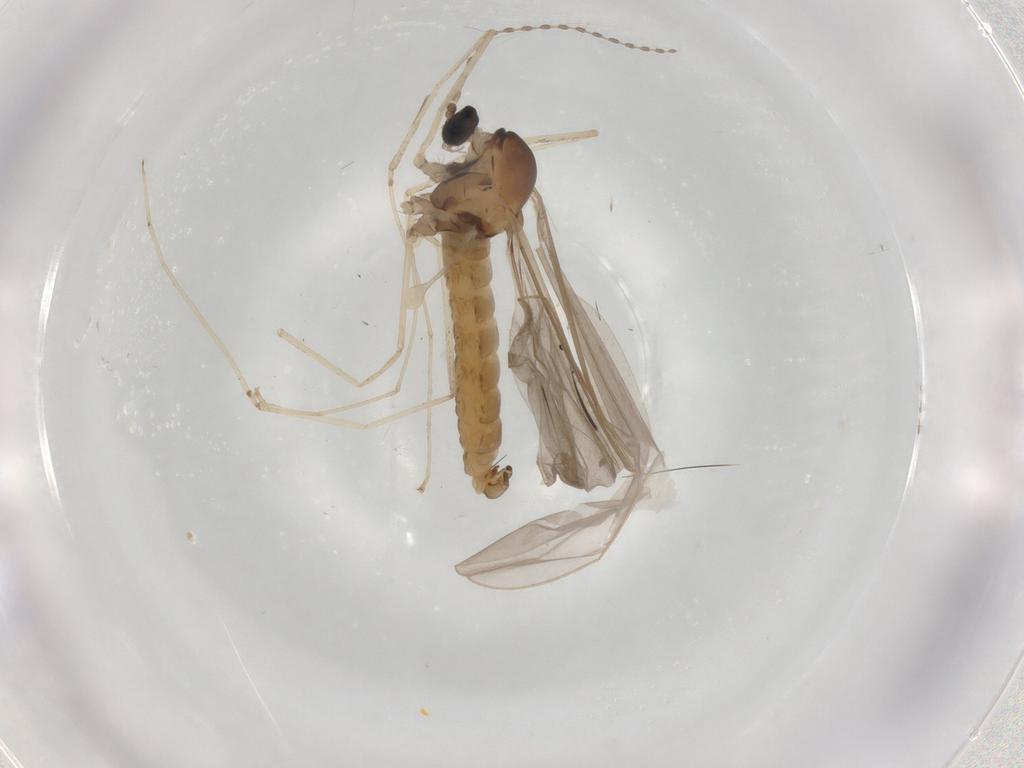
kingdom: Animalia
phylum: Arthropoda
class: Insecta
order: Diptera
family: Cecidomyiidae
